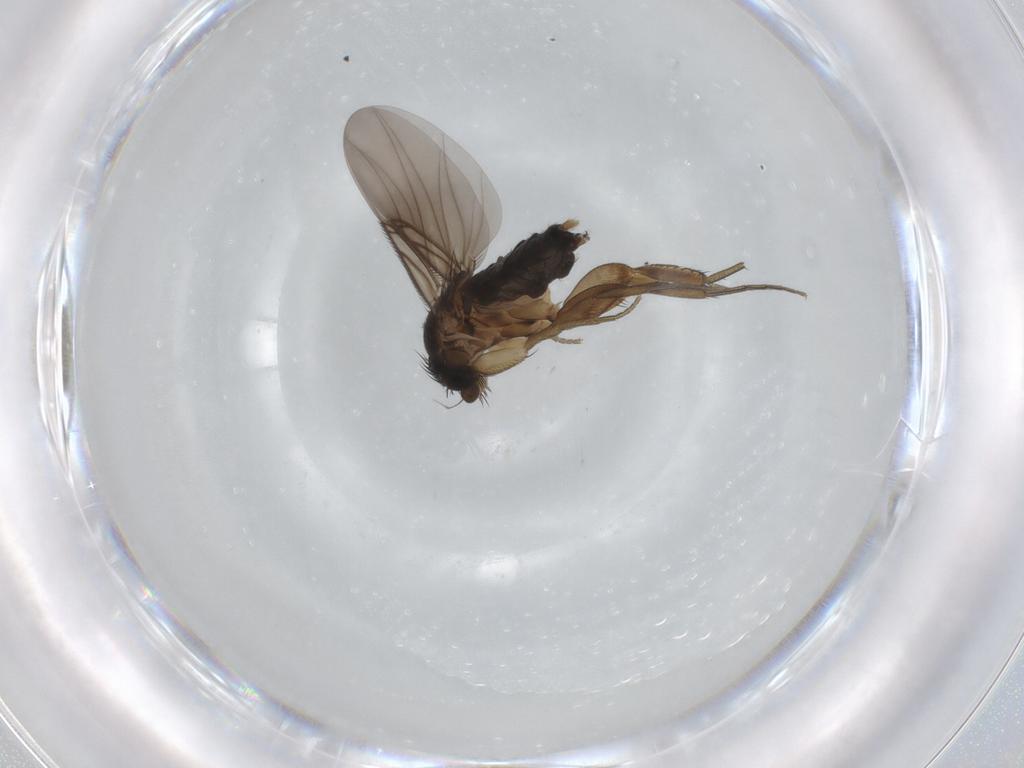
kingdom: Animalia
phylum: Arthropoda
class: Insecta
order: Diptera
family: Phoridae
